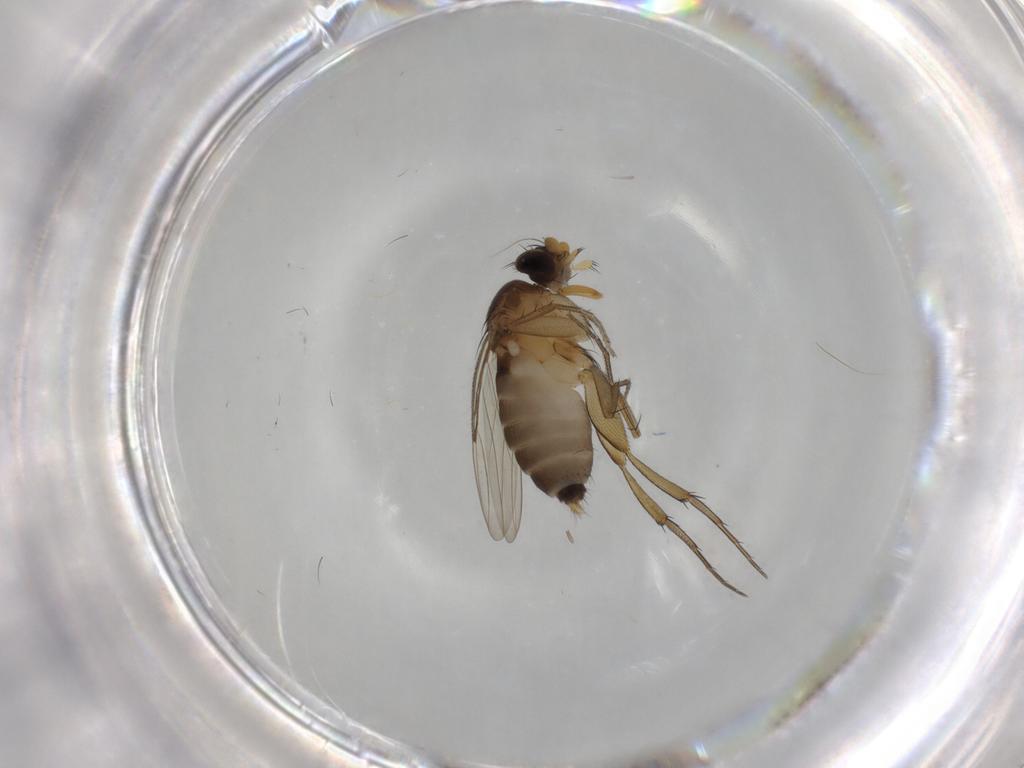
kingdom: Animalia
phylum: Arthropoda
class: Insecta
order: Diptera
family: Phoridae
